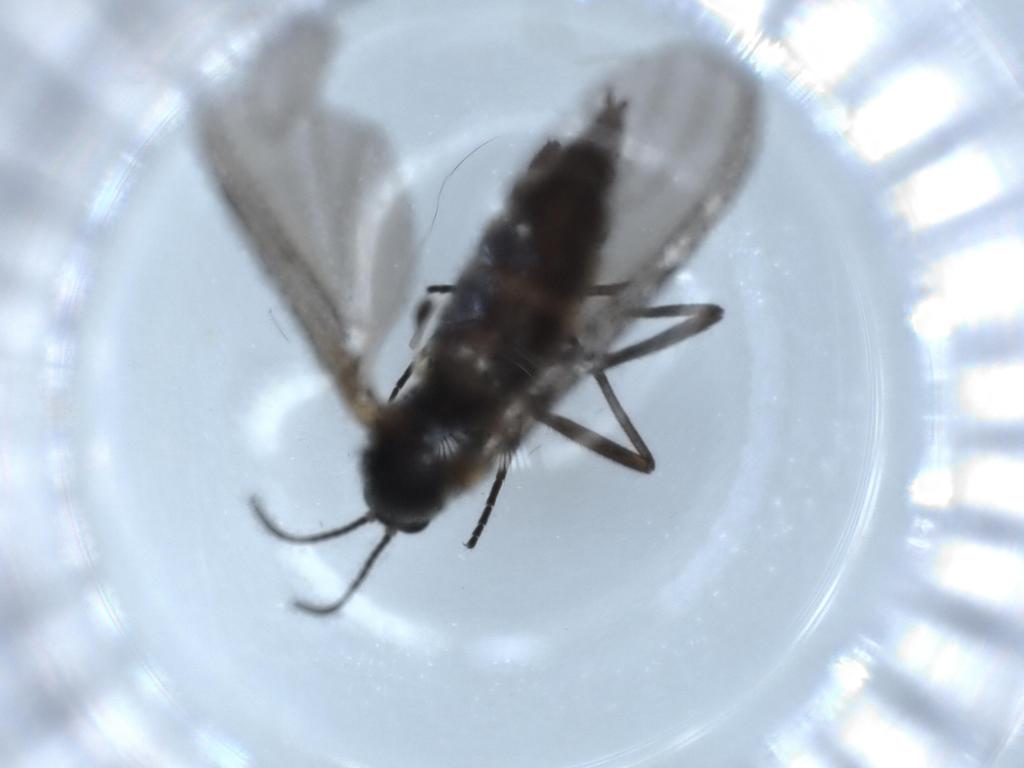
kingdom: Animalia
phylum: Arthropoda
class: Insecta
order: Diptera
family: Sciaridae
